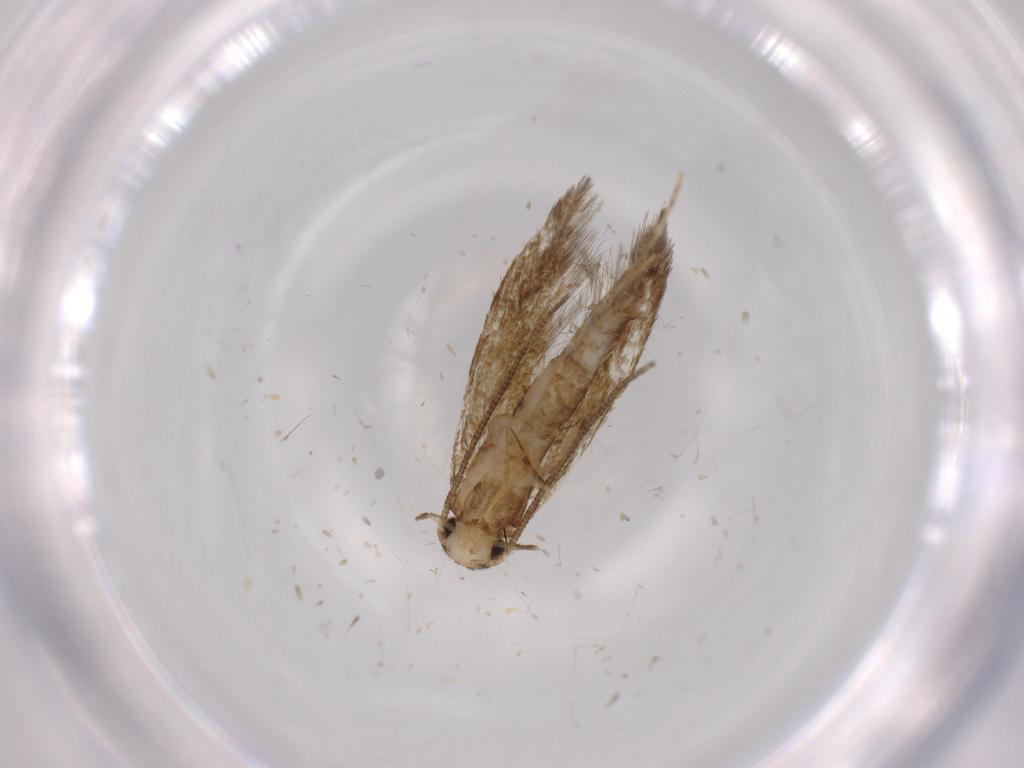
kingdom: Animalia
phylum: Arthropoda
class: Insecta
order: Lepidoptera
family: Tineidae
